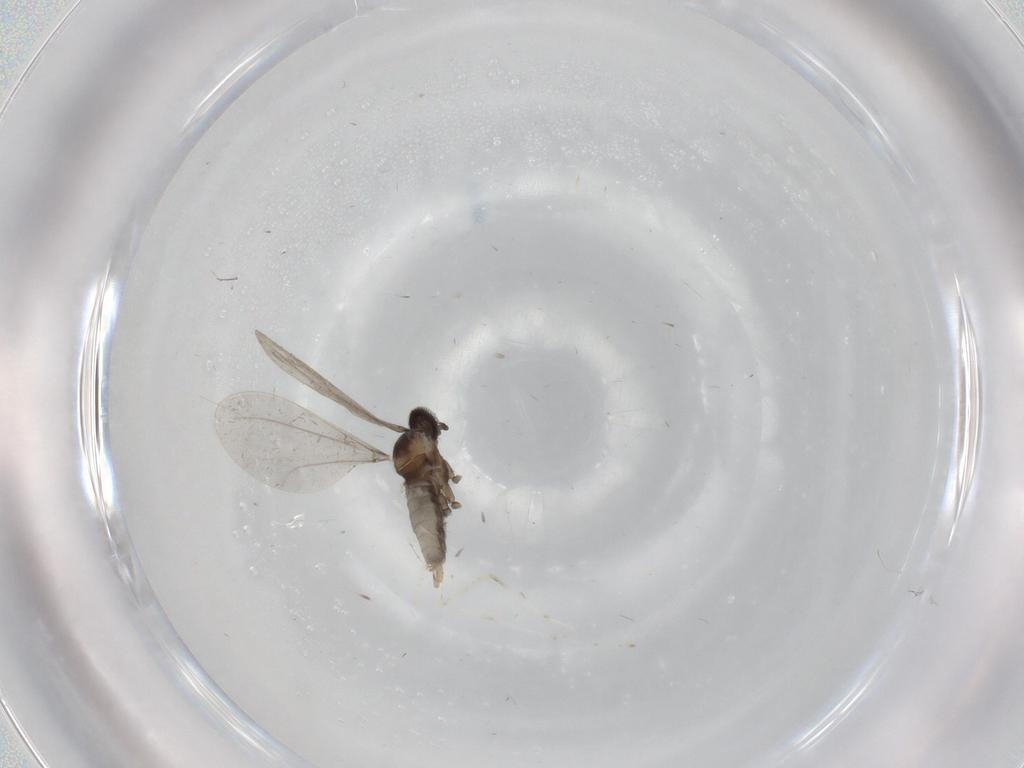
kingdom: Animalia
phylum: Arthropoda
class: Insecta
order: Diptera
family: Cecidomyiidae
